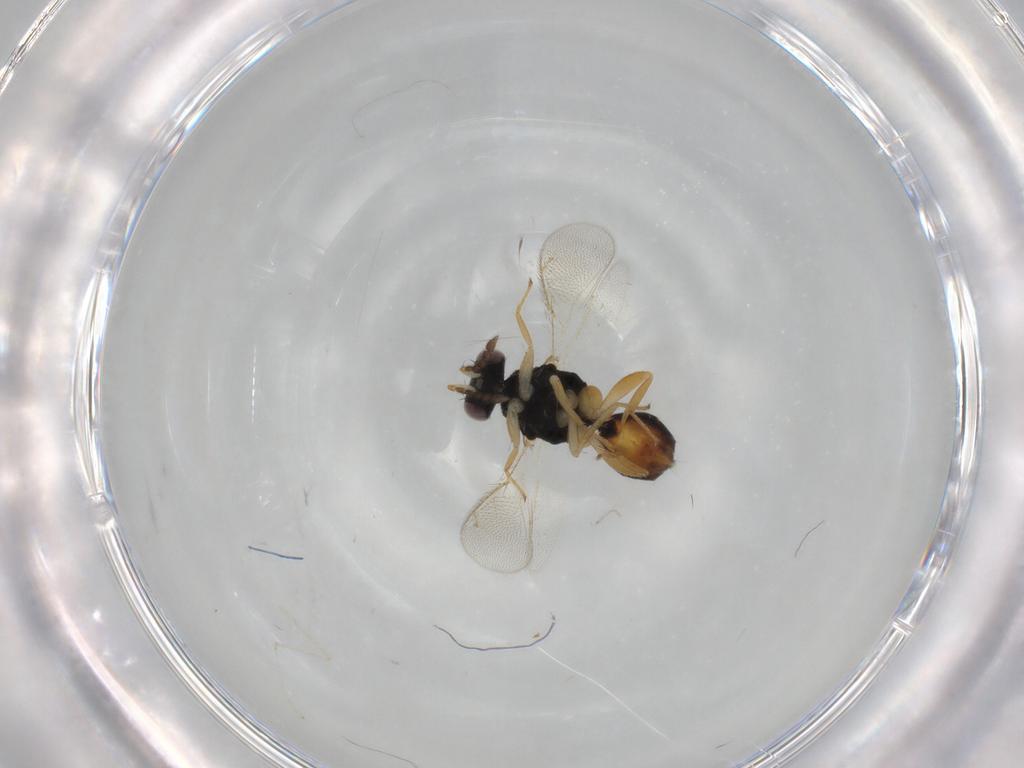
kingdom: Animalia
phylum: Arthropoda
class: Insecta
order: Hymenoptera
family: Eulophidae
